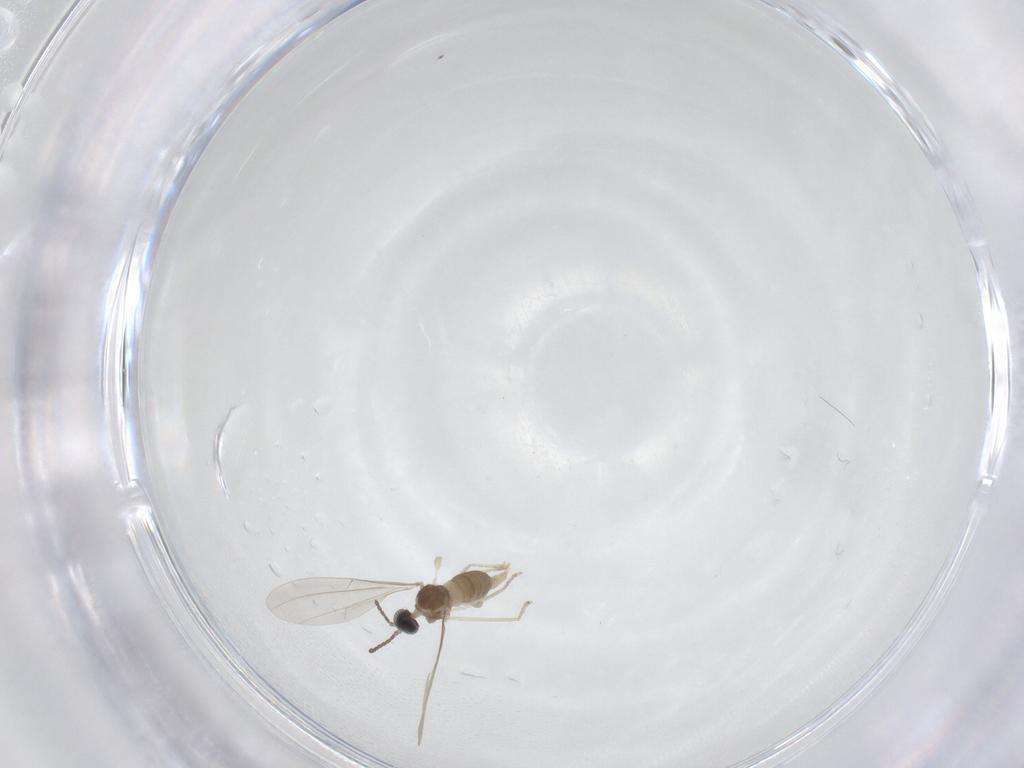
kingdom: Animalia
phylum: Arthropoda
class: Insecta
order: Diptera
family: Cecidomyiidae
